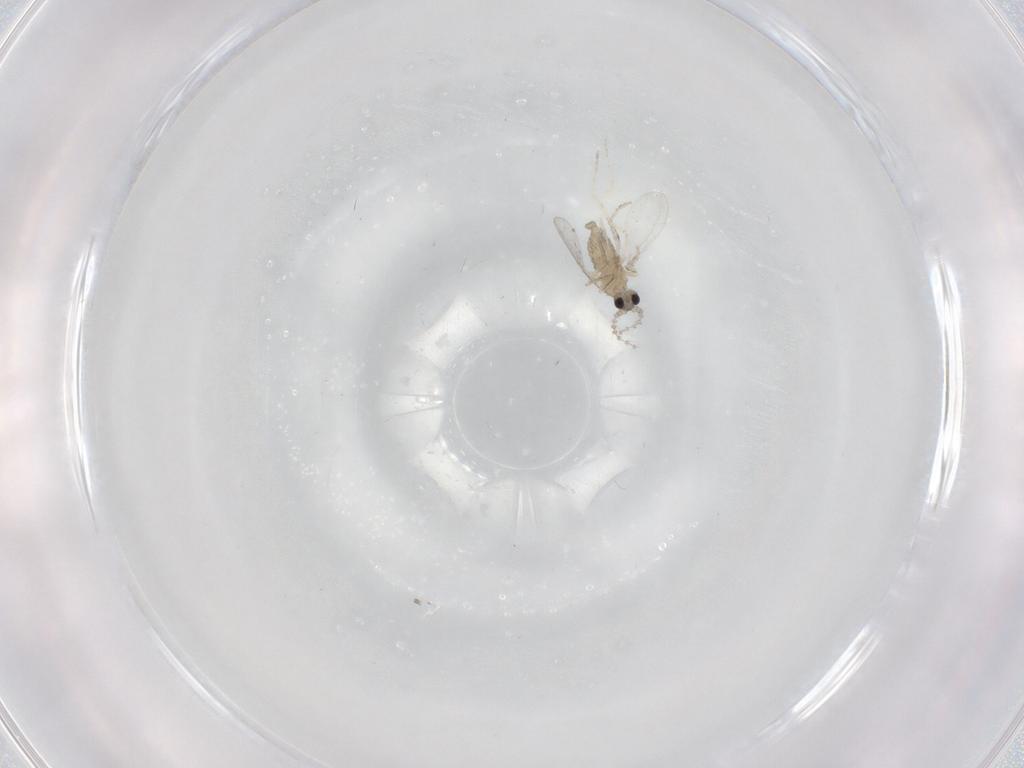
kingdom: Animalia
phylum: Arthropoda
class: Insecta
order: Diptera
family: Cecidomyiidae
